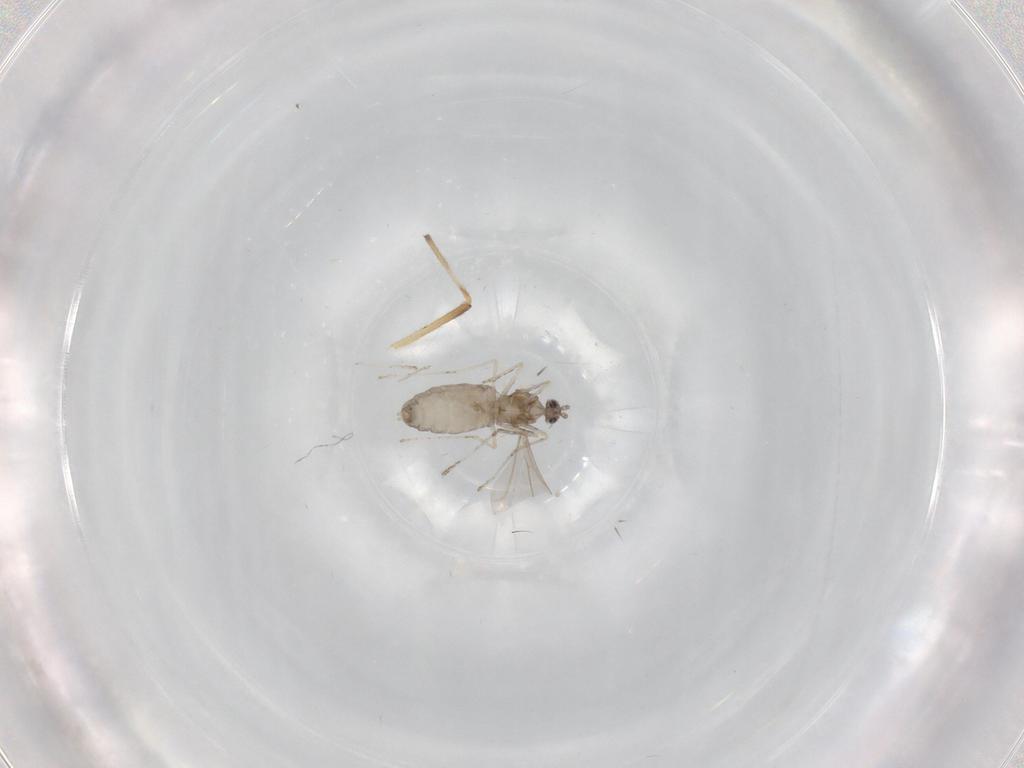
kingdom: Animalia
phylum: Arthropoda
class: Insecta
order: Diptera
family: Cecidomyiidae
